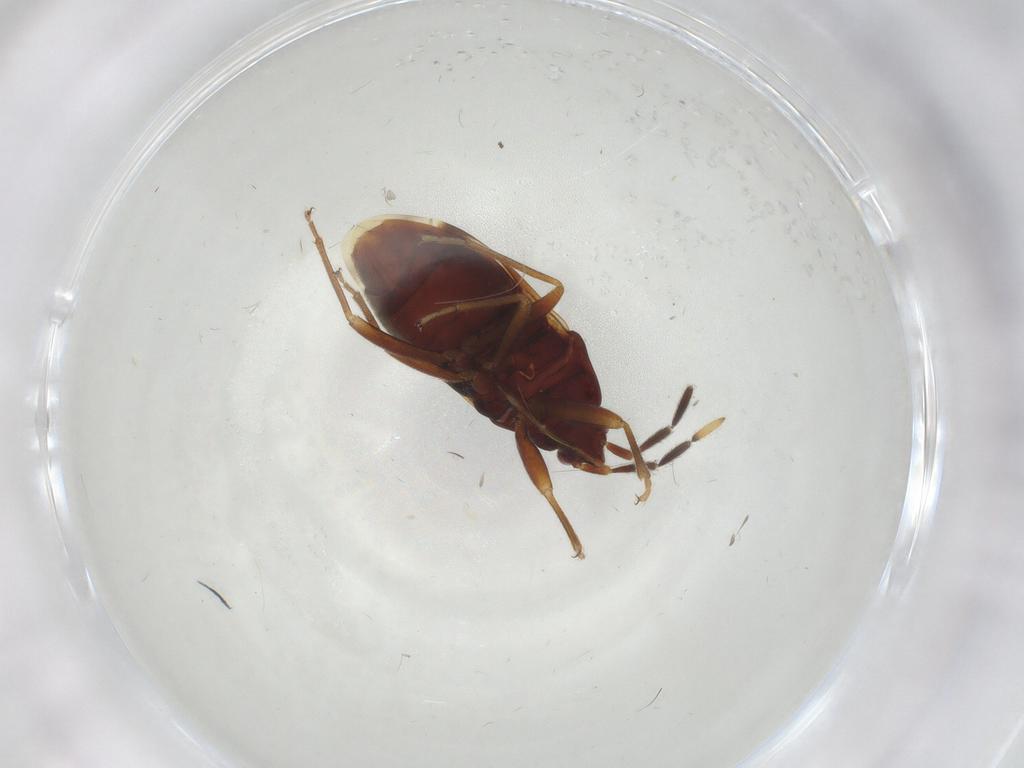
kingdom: Animalia
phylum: Arthropoda
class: Insecta
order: Hemiptera
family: Rhyparochromidae
